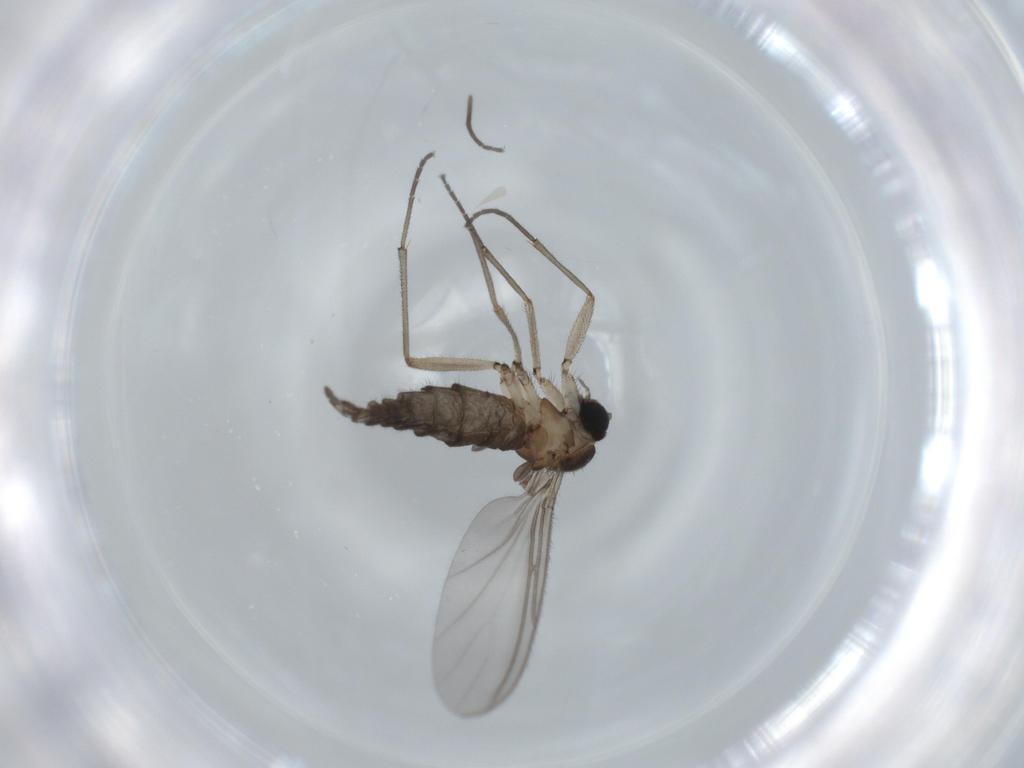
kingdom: Animalia
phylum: Arthropoda
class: Insecta
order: Diptera
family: Sciaridae
